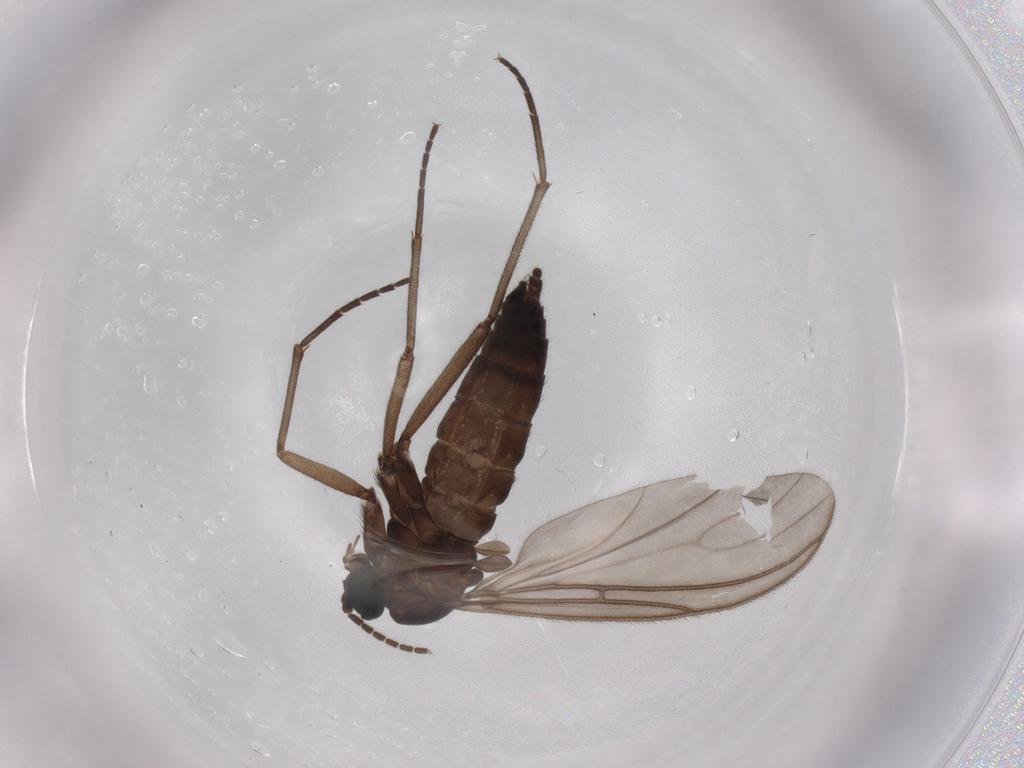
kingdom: Animalia
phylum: Arthropoda
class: Insecta
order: Diptera
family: Sciaridae
